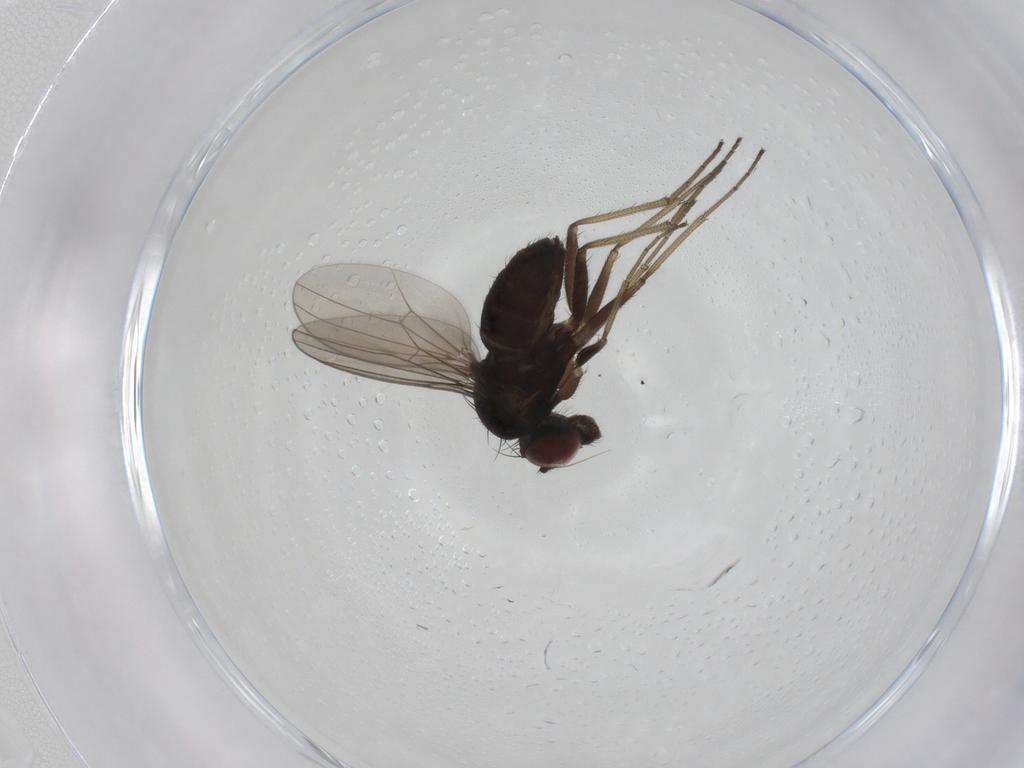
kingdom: Animalia
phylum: Arthropoda
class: Insecta
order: Diptera
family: Dolichopodidae
